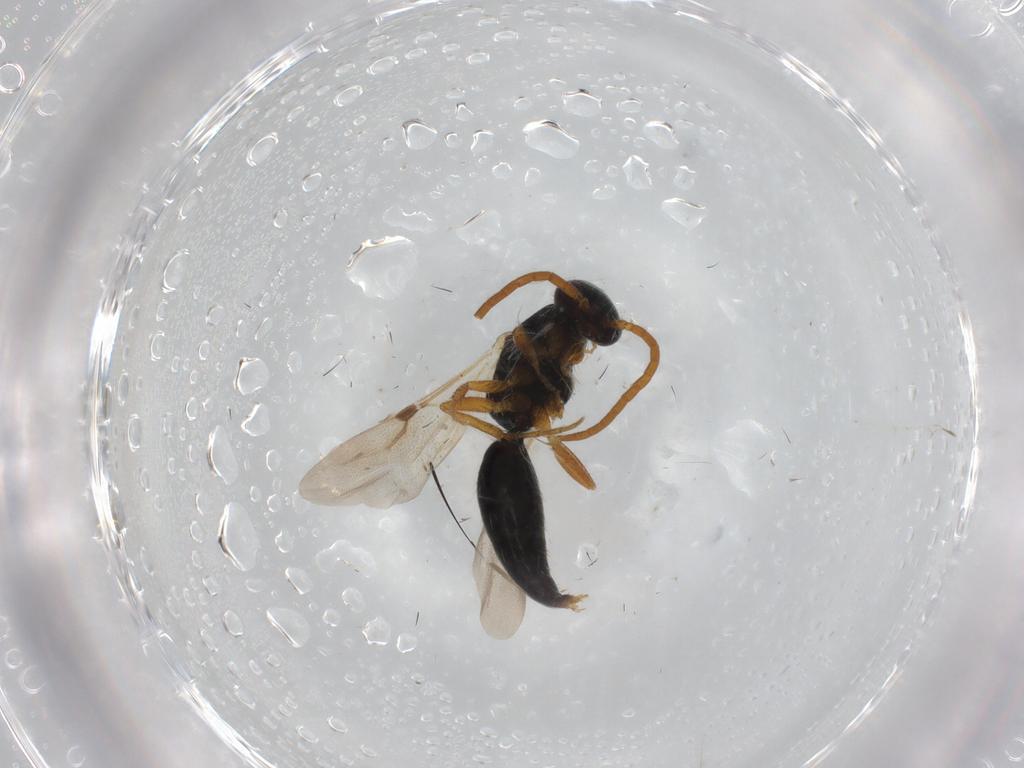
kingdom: Animalia
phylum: Arthropoda
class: Insecta
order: Hymenoptera
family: Bethylidae
